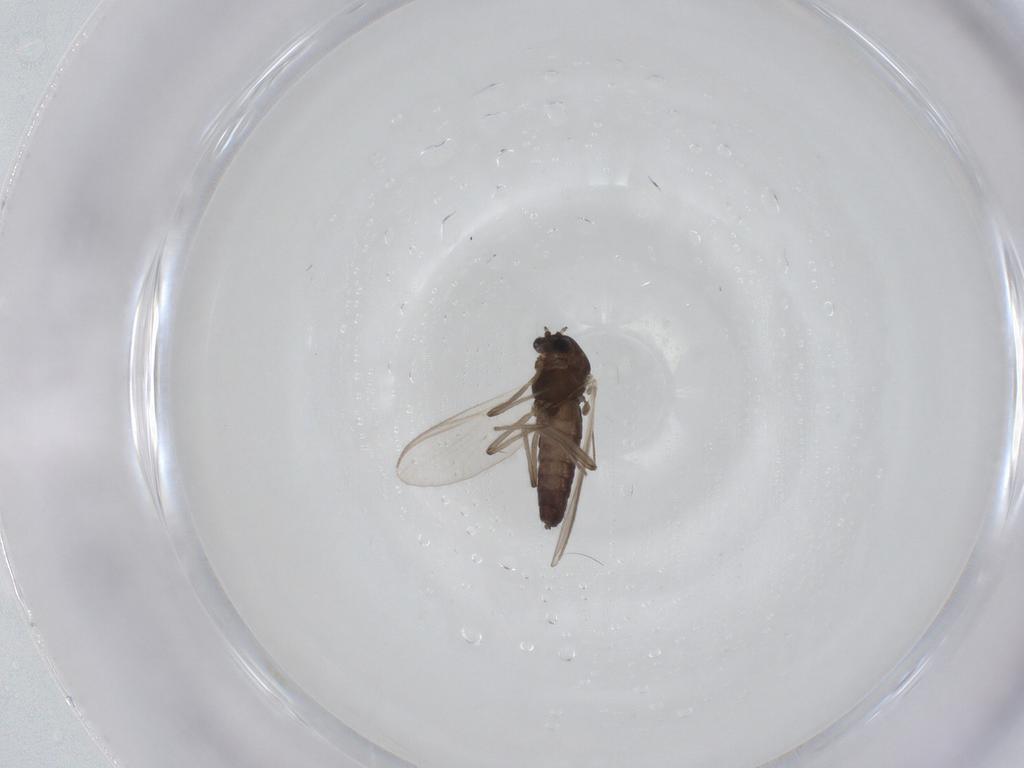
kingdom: Animalia
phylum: Arthropoda
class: Insecta
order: Diptera
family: Chironomidae
